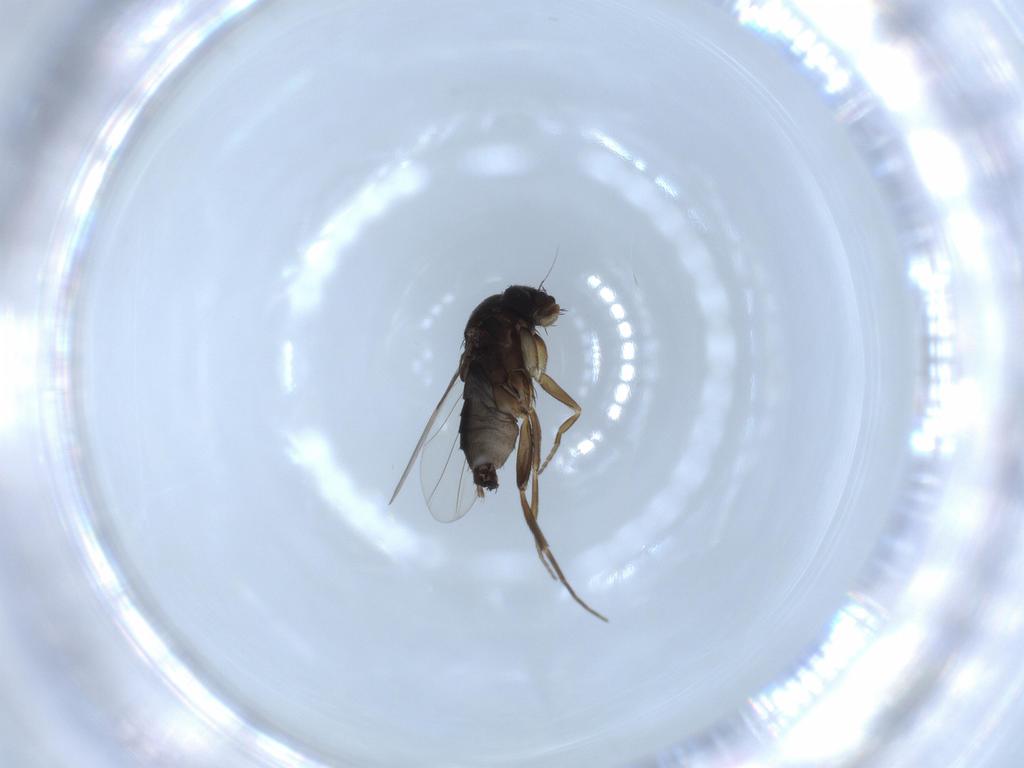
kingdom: Animalia
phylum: Arthropoda
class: Insecta
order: Diptera
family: Phoridae
